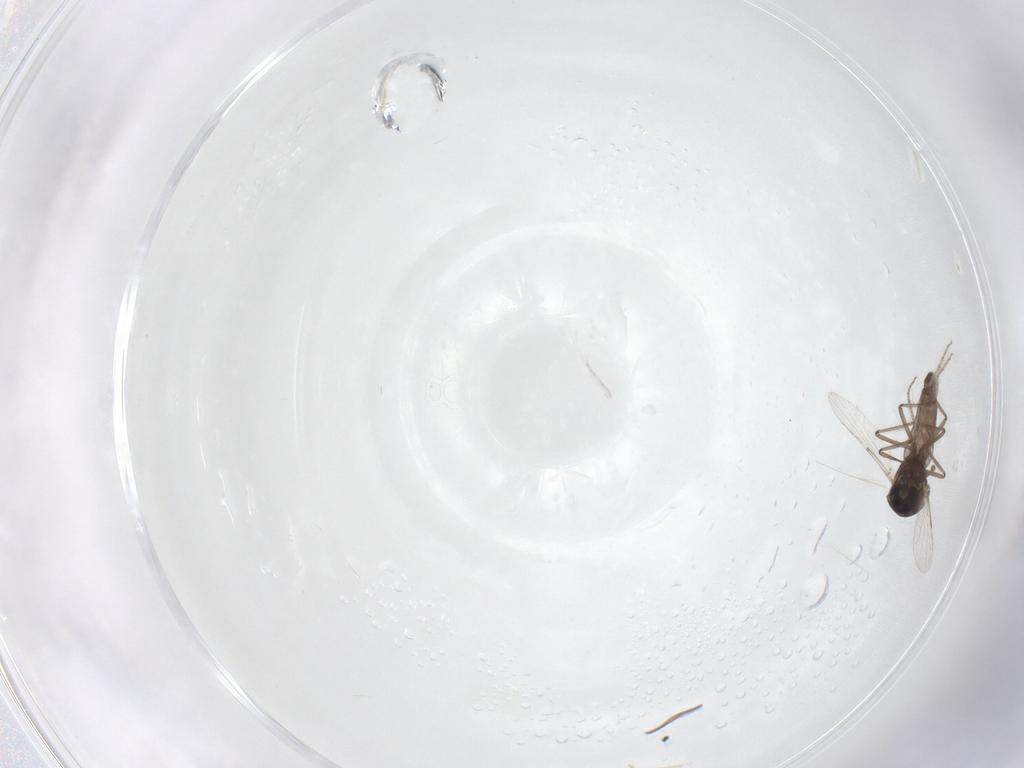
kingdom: Animalia
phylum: Arthropoda
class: Insecta
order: Diptera
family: Ceratopogonidae
